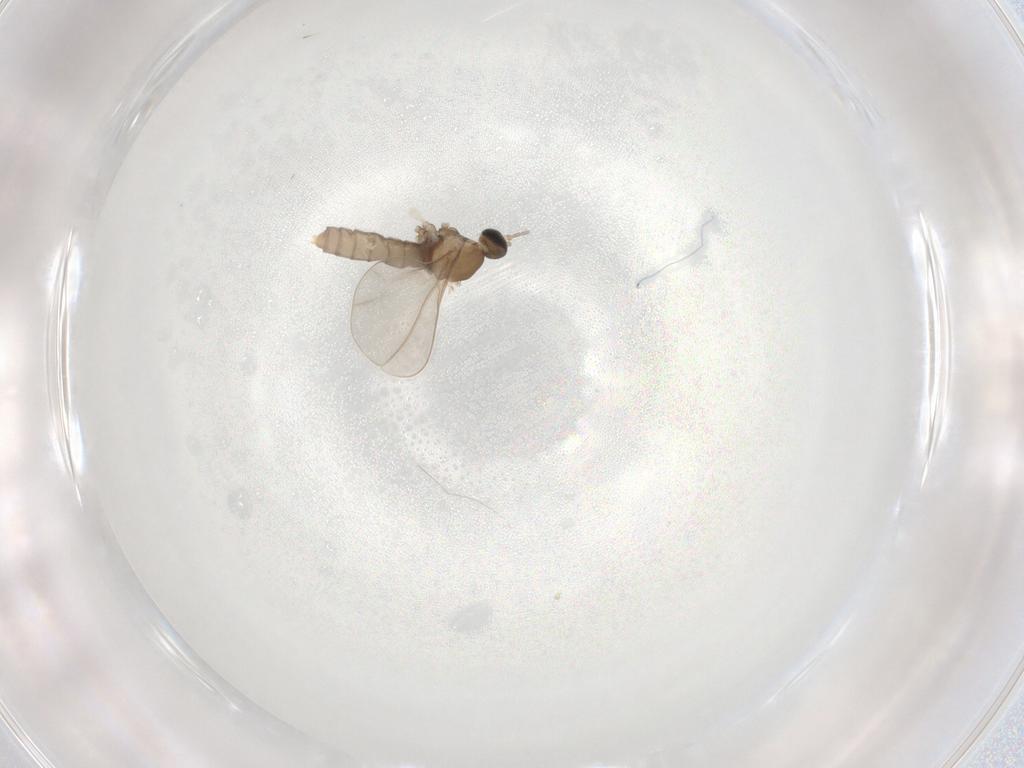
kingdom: Animalia
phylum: Arthropoda
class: Insecta
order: Diptera
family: Cecidomyiidae
